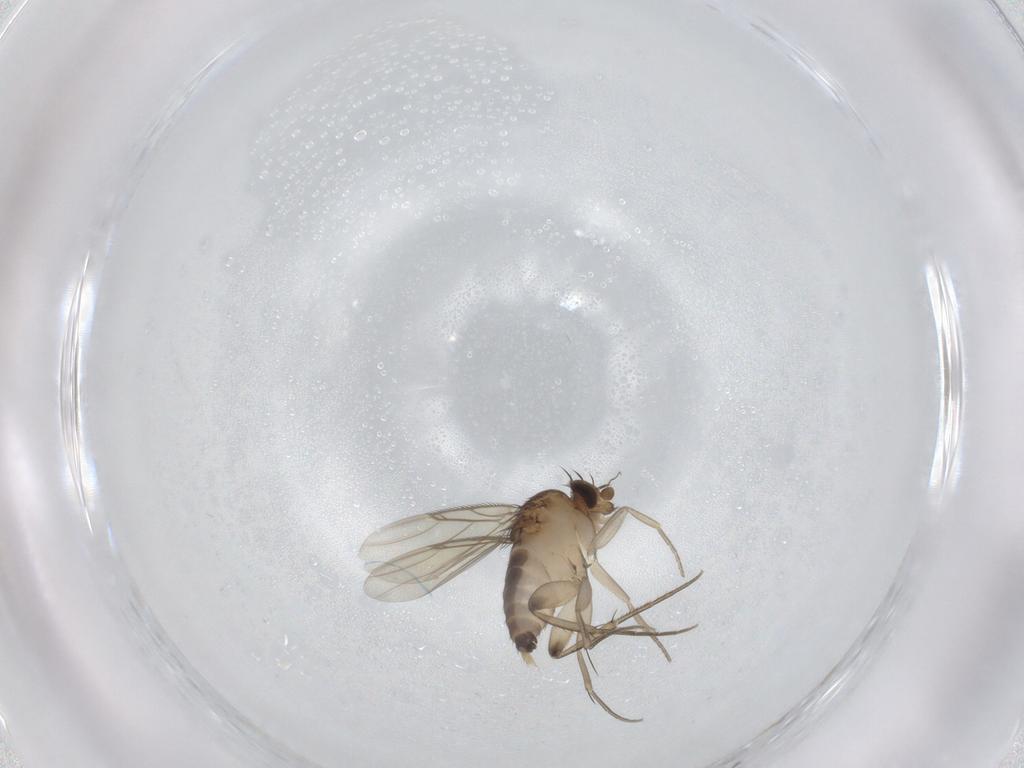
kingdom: Animalia
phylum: Arthropoda
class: Insecta
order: Diptera
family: Phoridae
